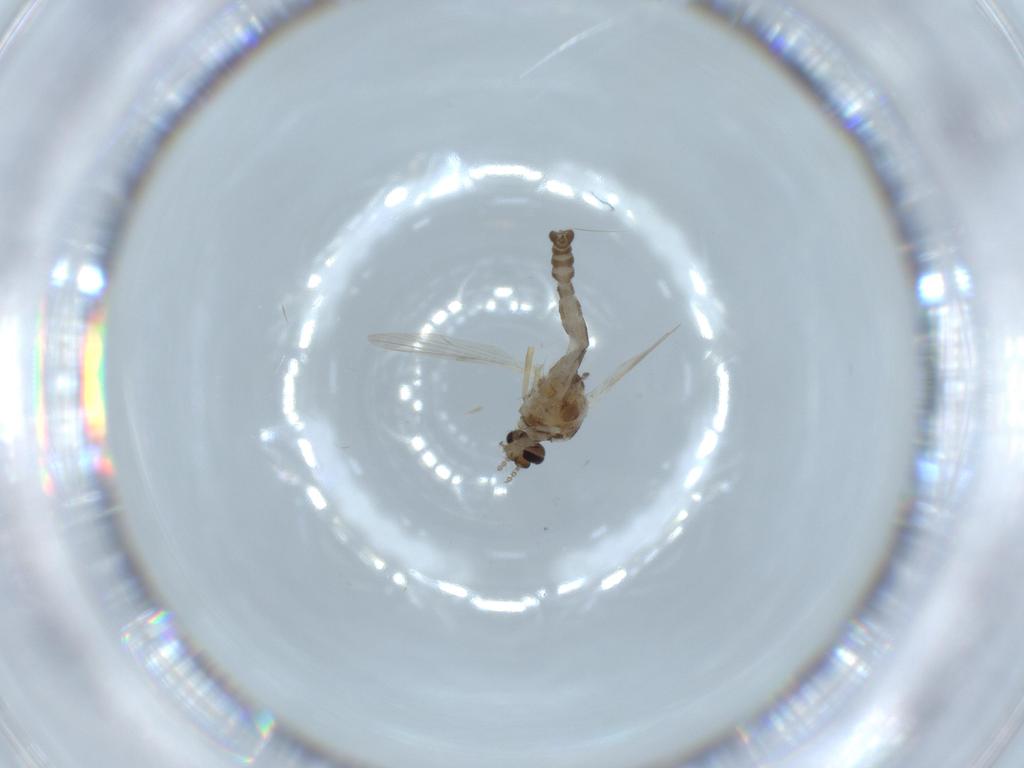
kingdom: Animalia
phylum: Arthropoda
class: Insecta
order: Diptera
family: Ceratopogonidae
